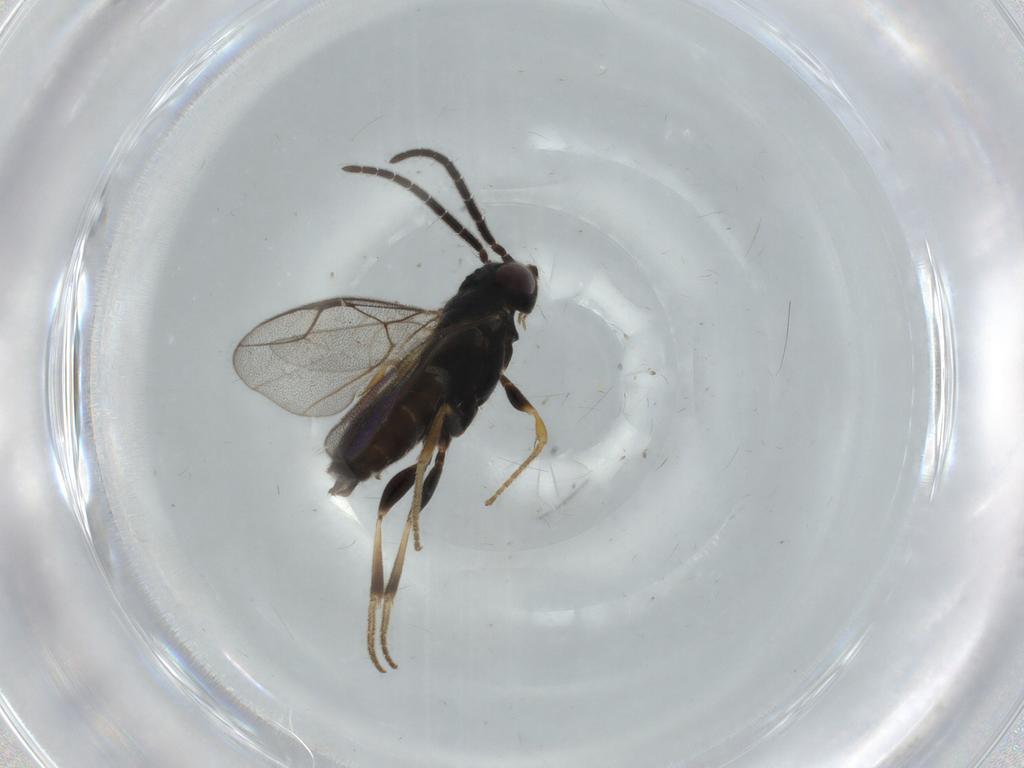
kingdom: Animalia
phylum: Arthropoda
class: Insecta
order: Hymenoptera
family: Dryinidae
